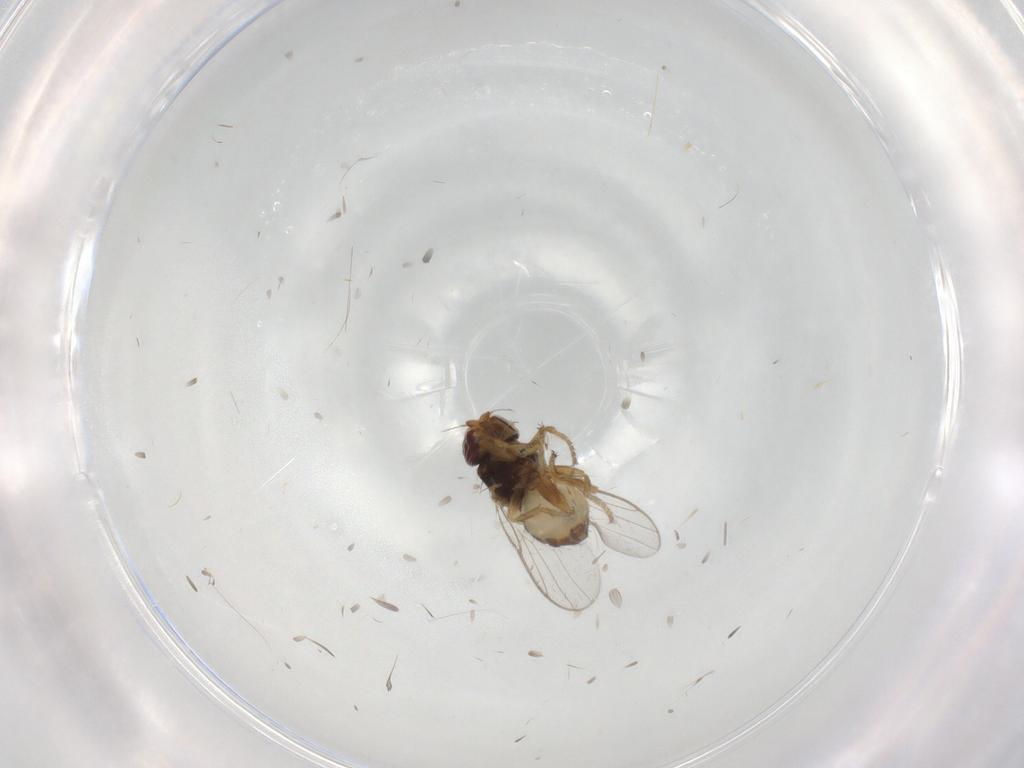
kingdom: Animalia
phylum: Arthropoda
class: Insecta
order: Diptera
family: Chloropidae
